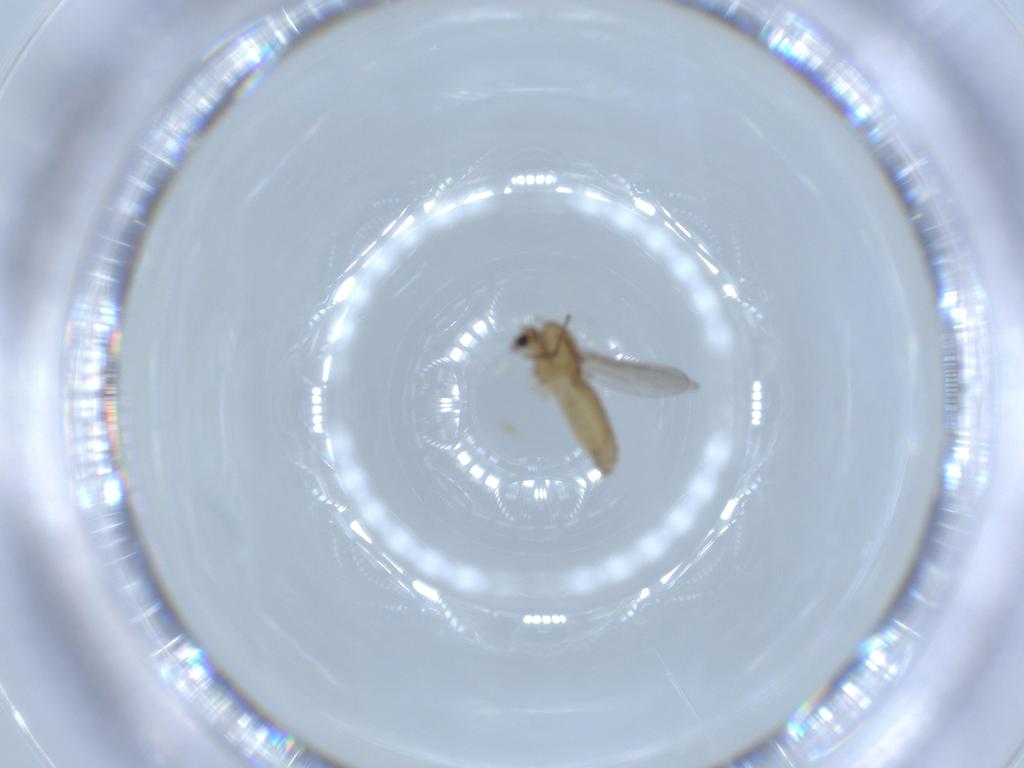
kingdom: Animalia
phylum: Arthropoda
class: Insecta
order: Diptera
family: Chironomidae
